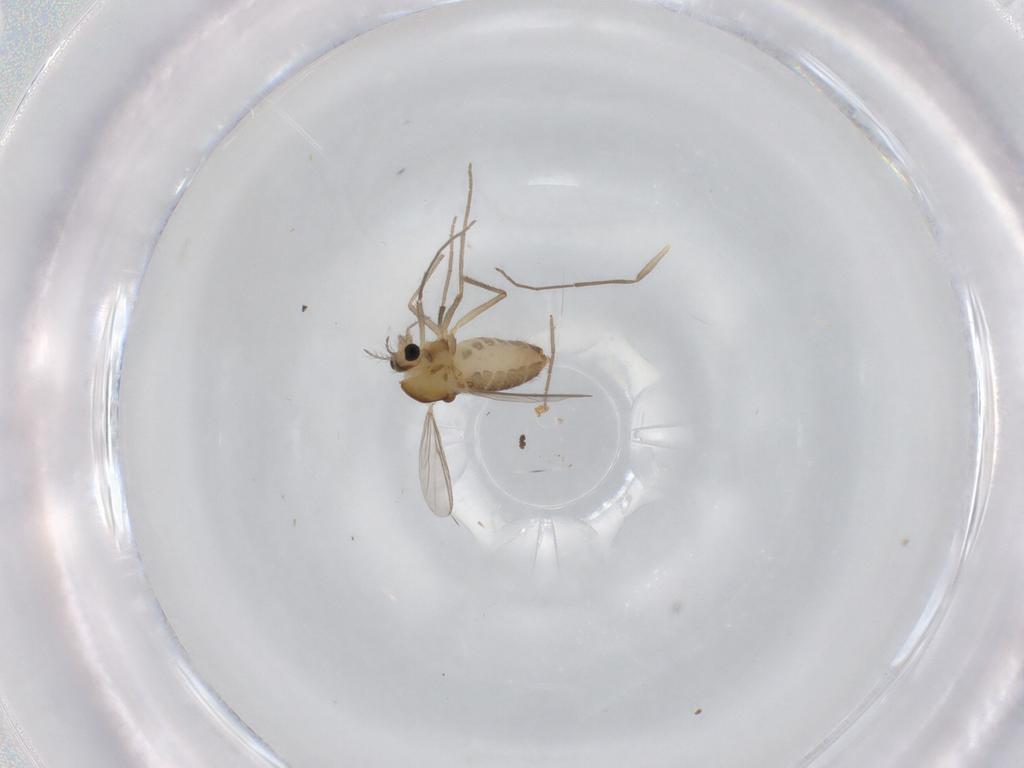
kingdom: Animalia
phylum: Arthropoda
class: Insecta
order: Diptera
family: Chironomidae
